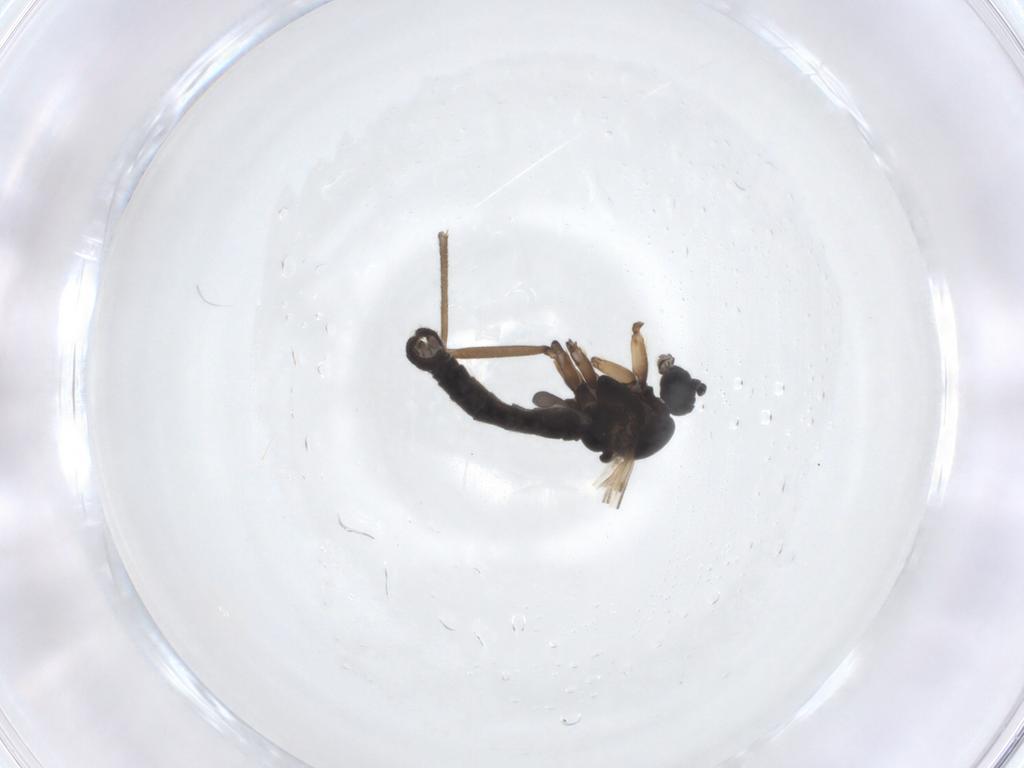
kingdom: Animalia
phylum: Arthropoda
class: Insecta
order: Diptera
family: Sciaridae
